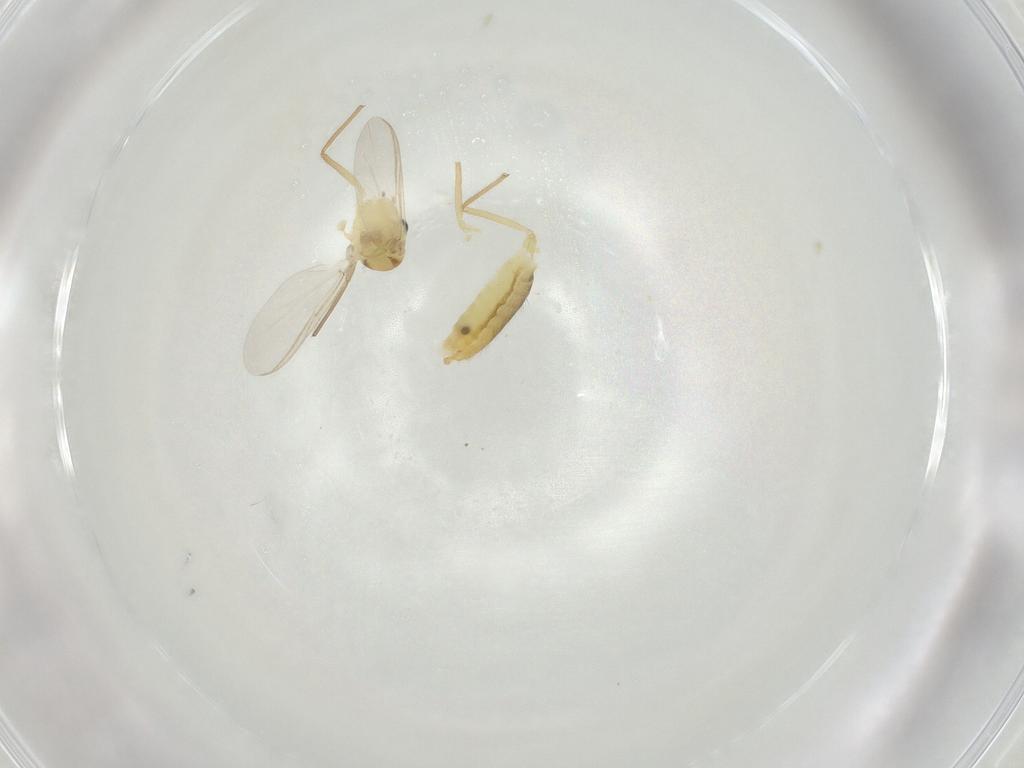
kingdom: Animalia
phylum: Arthropoda
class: Insecta
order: Diptera
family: Chironomidae
